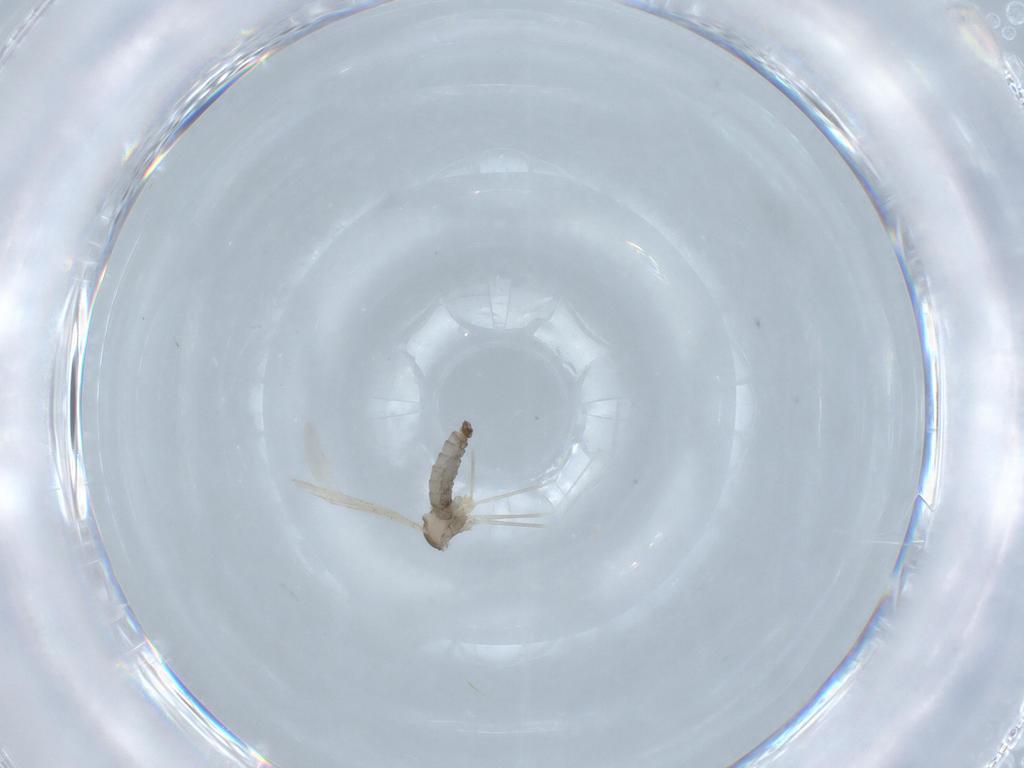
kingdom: Animalia
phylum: Arthropoda
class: Insecta
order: Diptera
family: Cecidomyiidae
